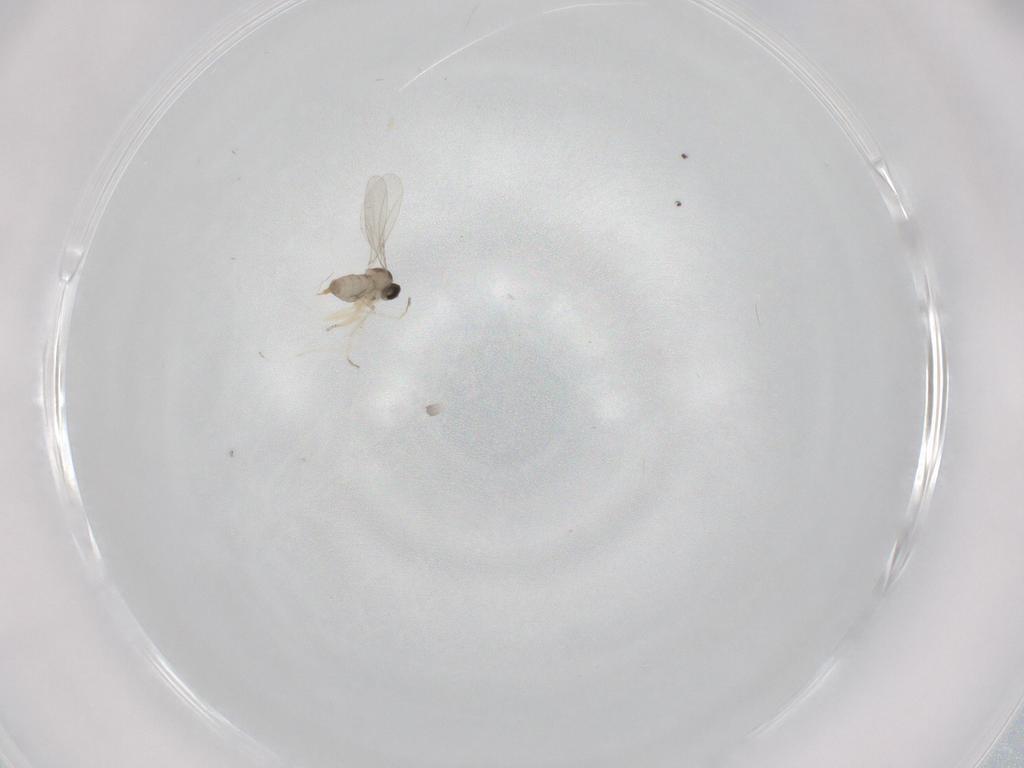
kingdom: Animalia
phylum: Arthropoda
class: Insecta
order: Diptera
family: Cecidomyiidae
